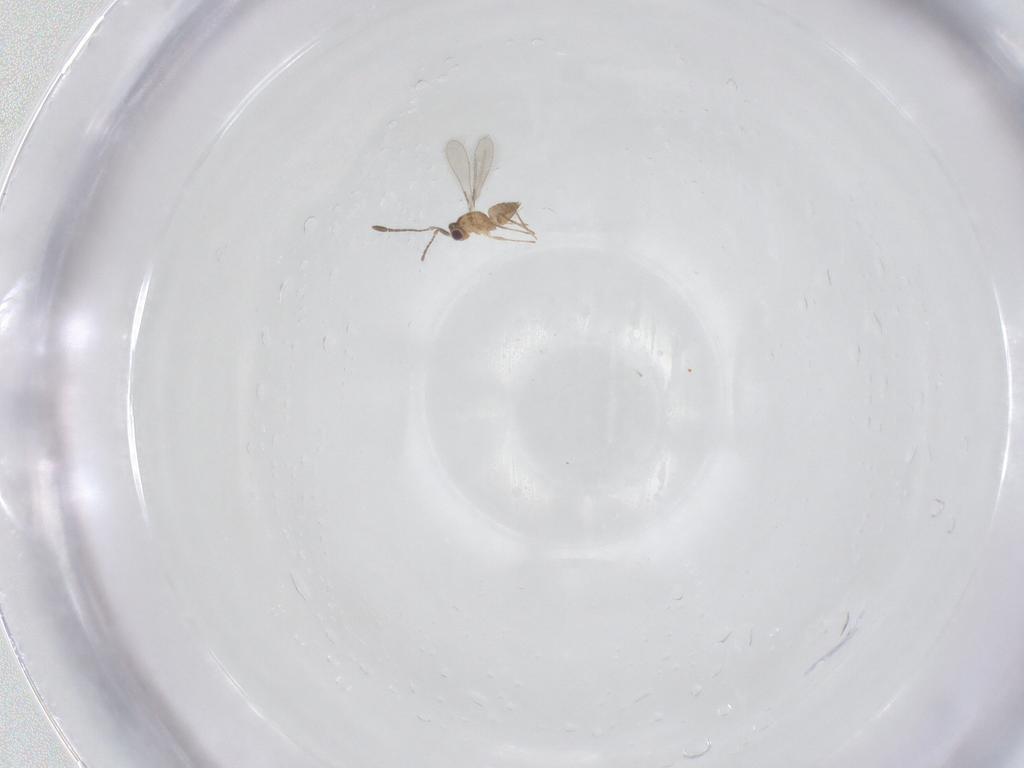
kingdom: Animalia
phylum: Arthropoda
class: Insecta
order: Hymenoptera
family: Mymaridae
